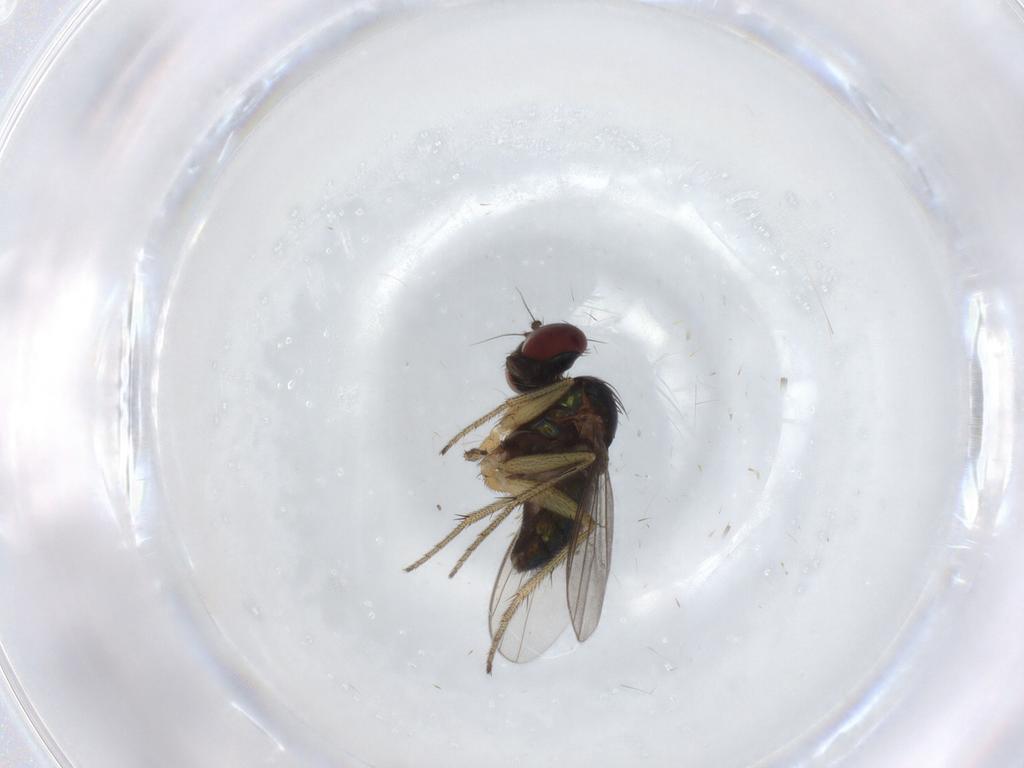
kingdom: Animalia
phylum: Arthropoda
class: Insecta
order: Diptera
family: Dolichopodidae
